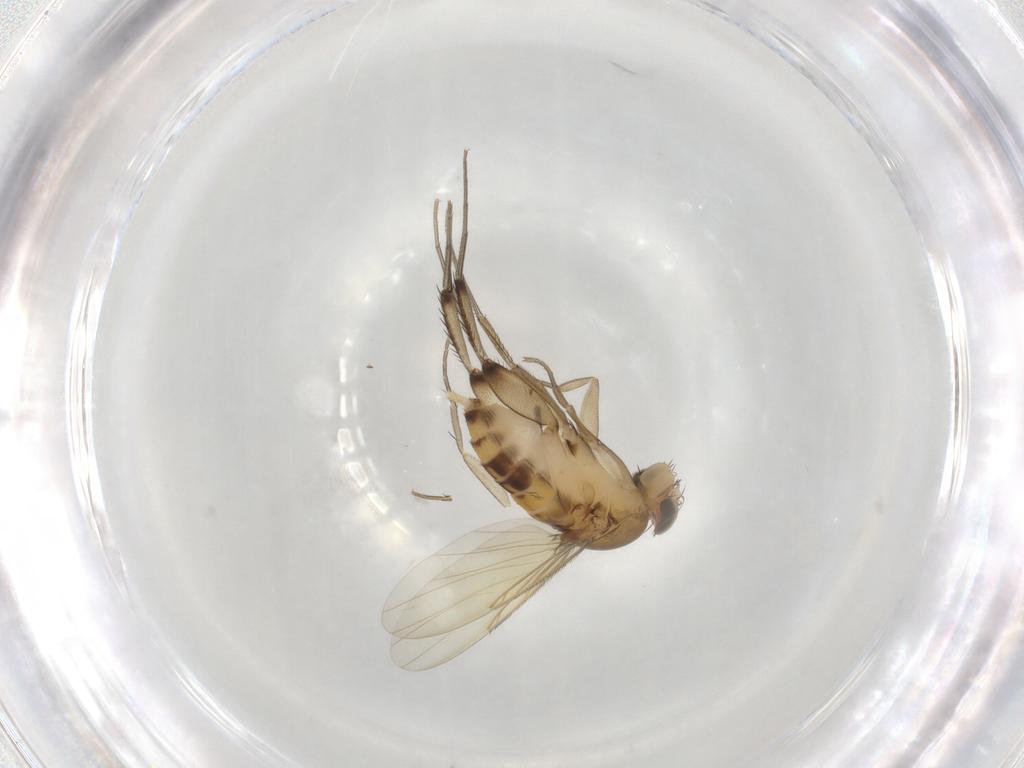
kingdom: Animalia
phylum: Arthropoda
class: Insecta
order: Diptera
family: Phoridae
